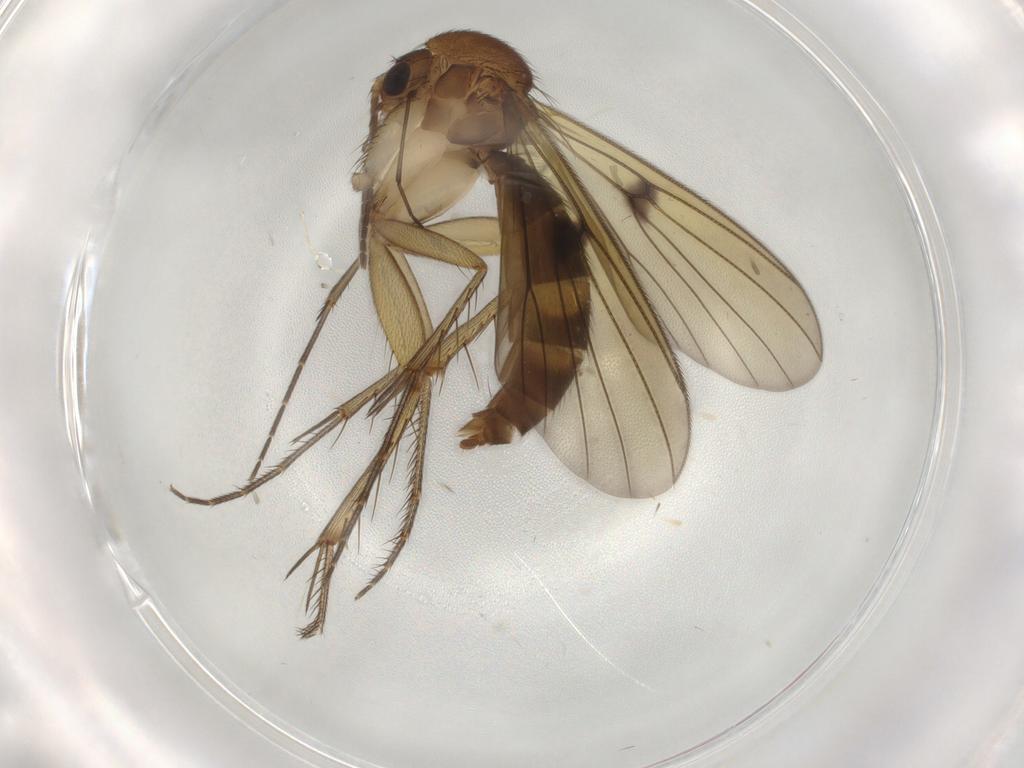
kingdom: Animalia
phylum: Arthropoda
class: Insecta
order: Diptera
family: Mycetophilidae
